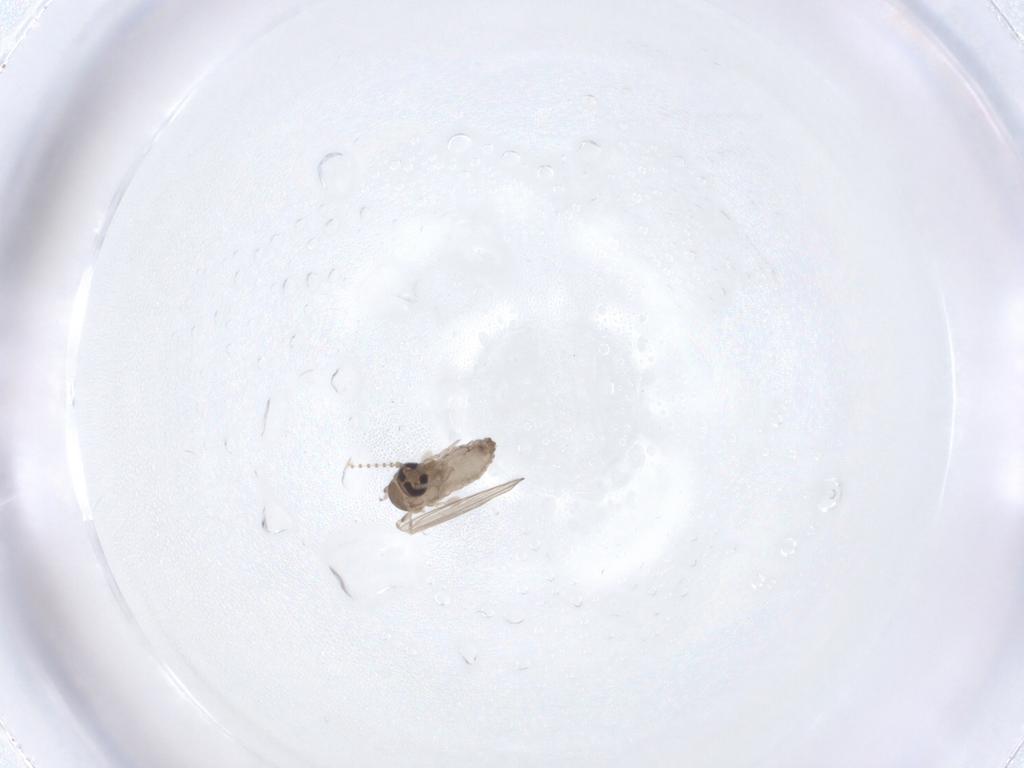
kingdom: Animalia
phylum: Arthropoda
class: Insecta
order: Diptera
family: Psychodidae
